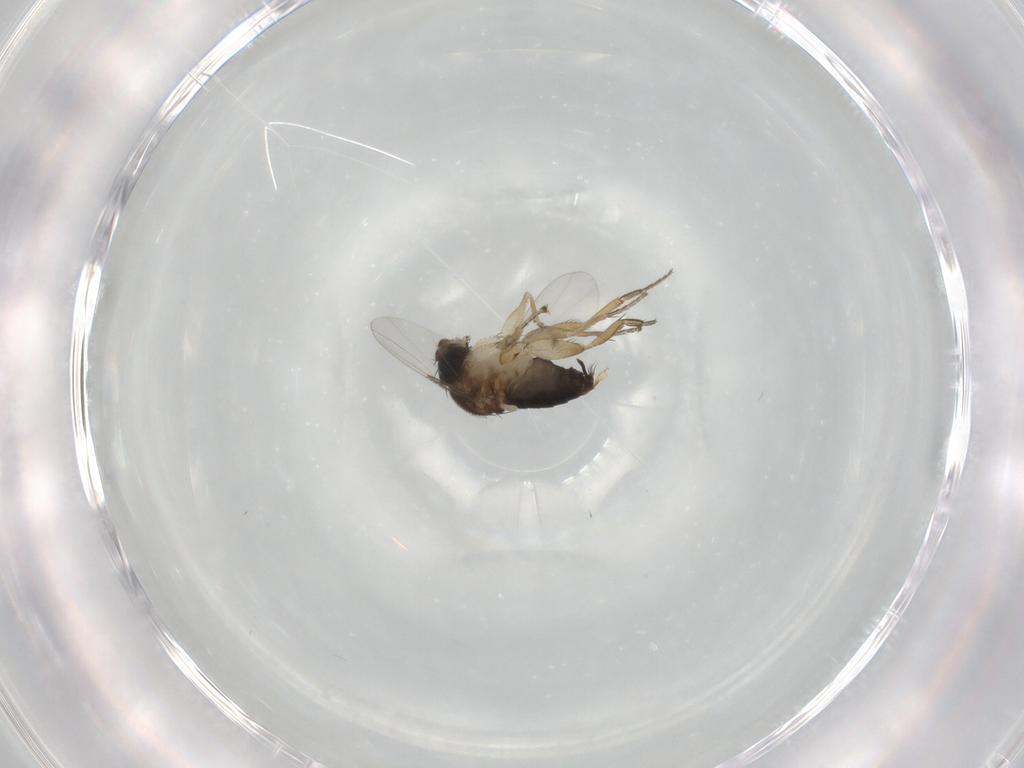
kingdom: Animalia
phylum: Arthropoda
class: Insecta
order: Diptera
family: Phoridae
